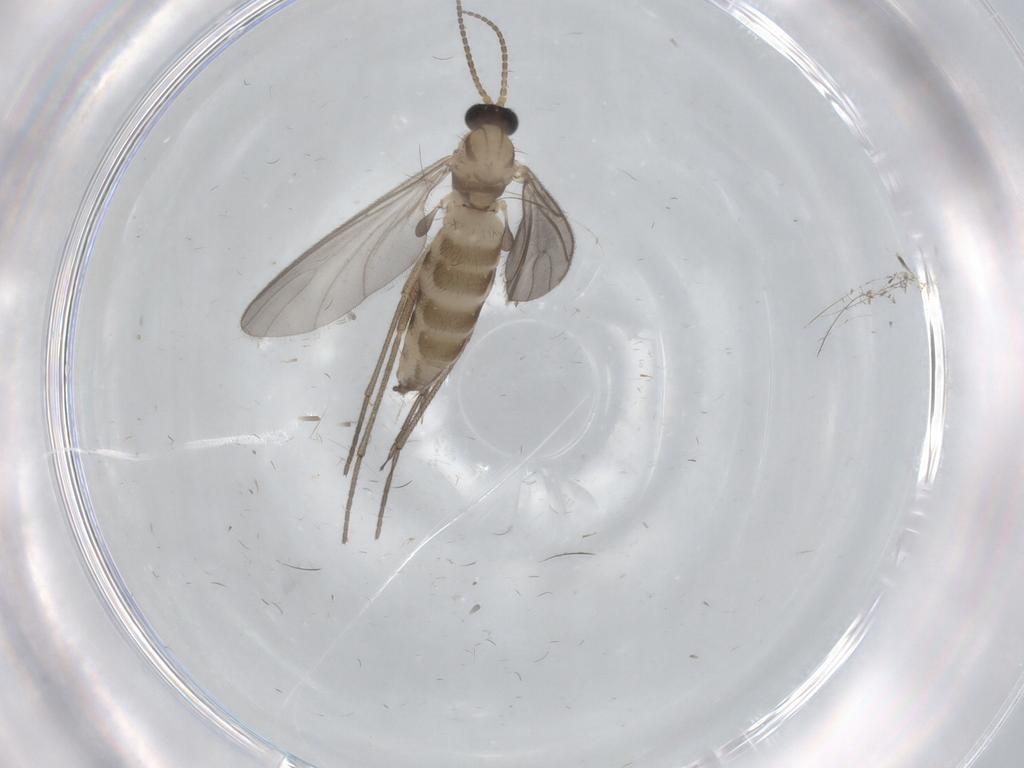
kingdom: Animalia
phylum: Arthropoda
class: Insecta
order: Diptera
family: Sciaridae
